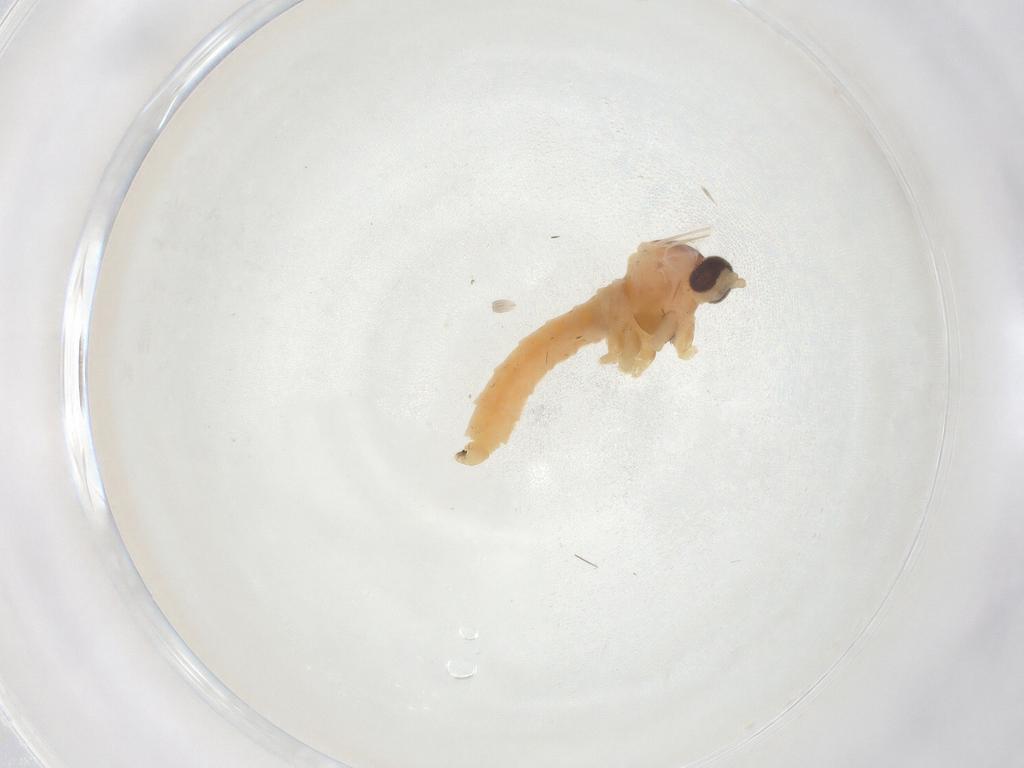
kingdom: Animalia
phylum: Arthropoda
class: Insecta
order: Diptera
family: Cecidomyiidae
